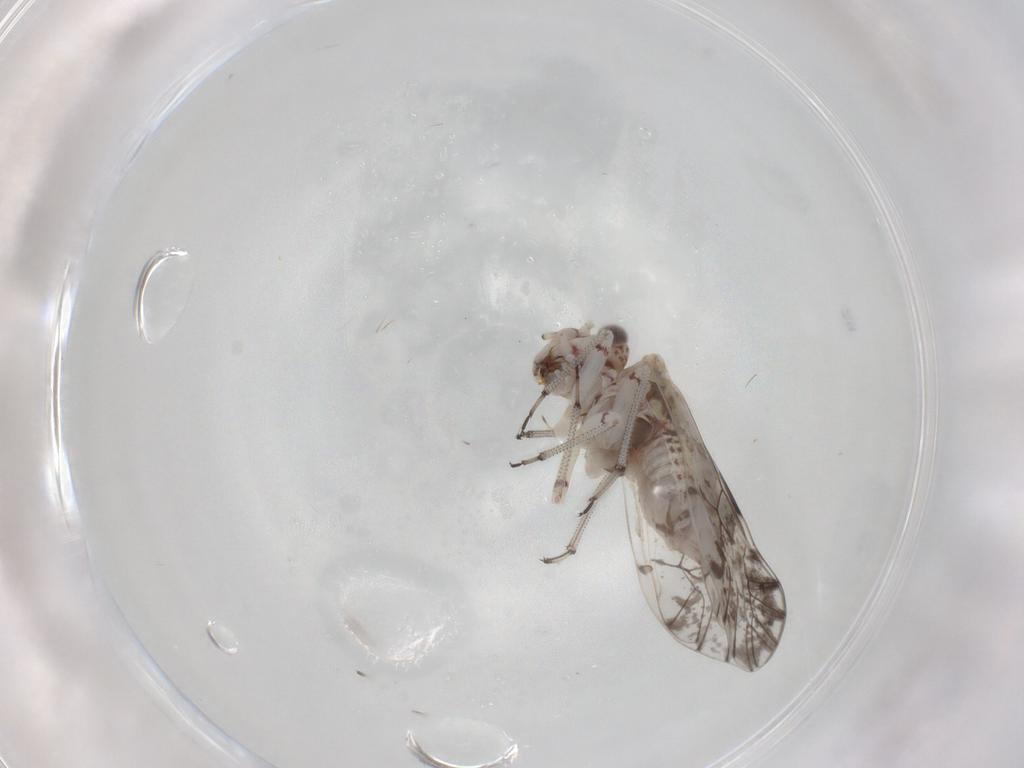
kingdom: Animalia
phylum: Arthropoda
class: Insecta
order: Psocodea
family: Psocidae
